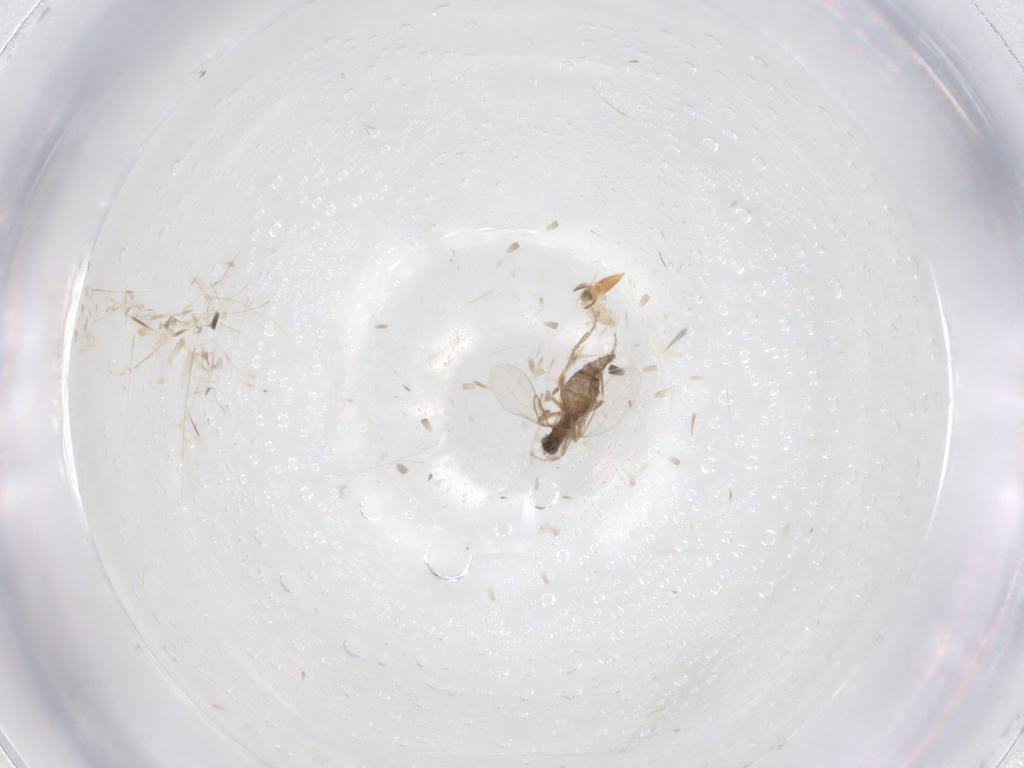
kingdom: Animalia
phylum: Arthropoda
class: Insecta
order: Diptera
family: Phoridae
